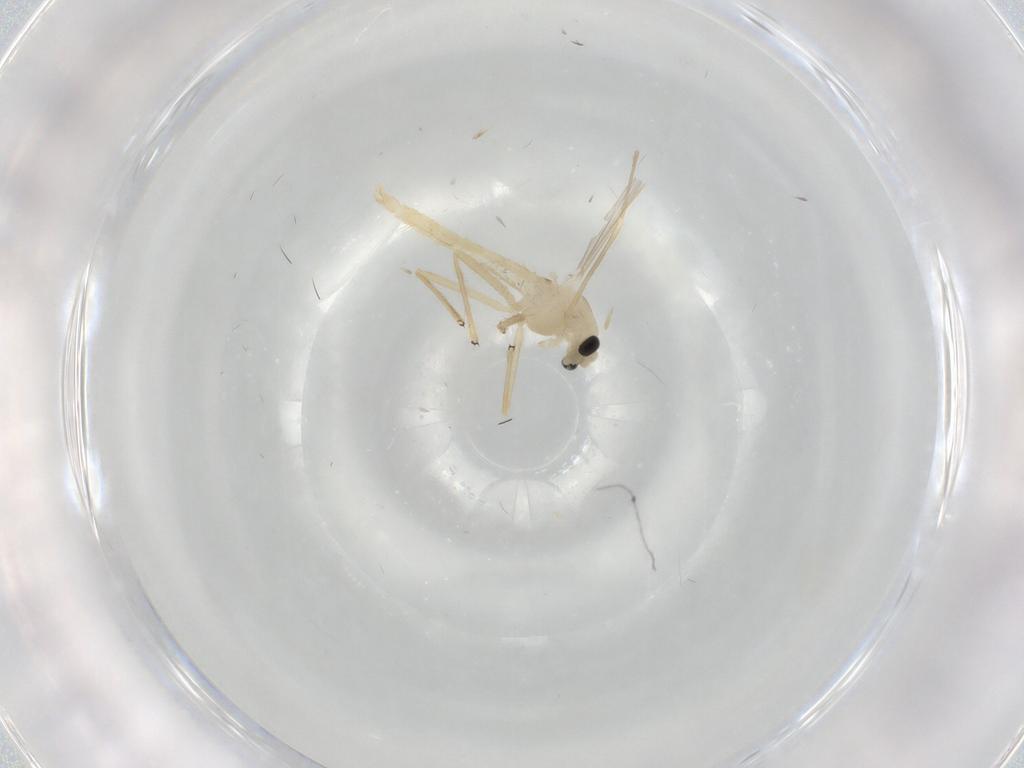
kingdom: Animalia
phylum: Arthropoda
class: Insecta
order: Diptera
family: Chironomidae
